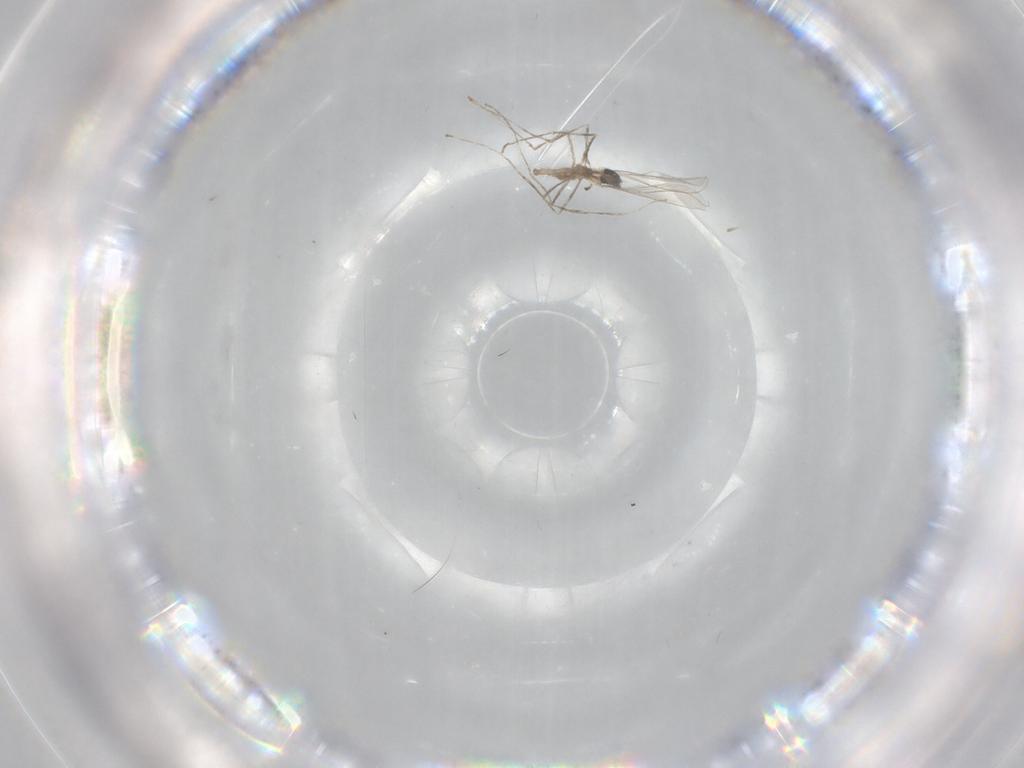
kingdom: Animalia
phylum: Arthropoda
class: Insecta
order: Diptera
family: Cecidomyiidae
